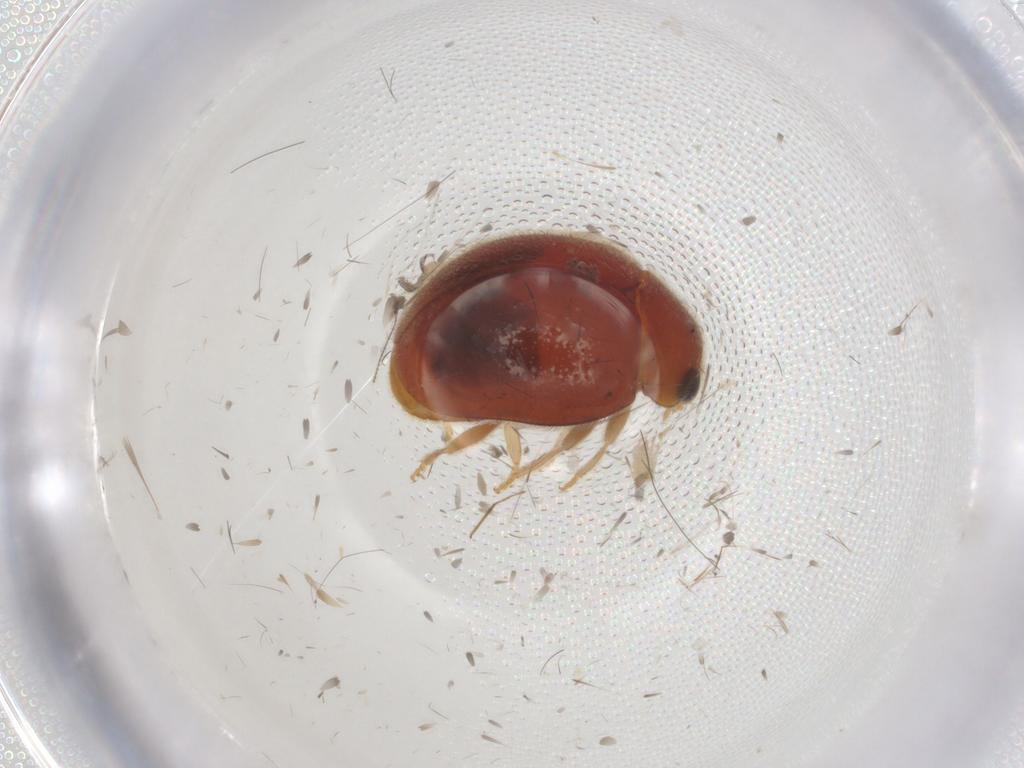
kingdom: Animalia
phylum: Arthropoda
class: Insecta
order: Coleoptera
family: Coccinellidae
